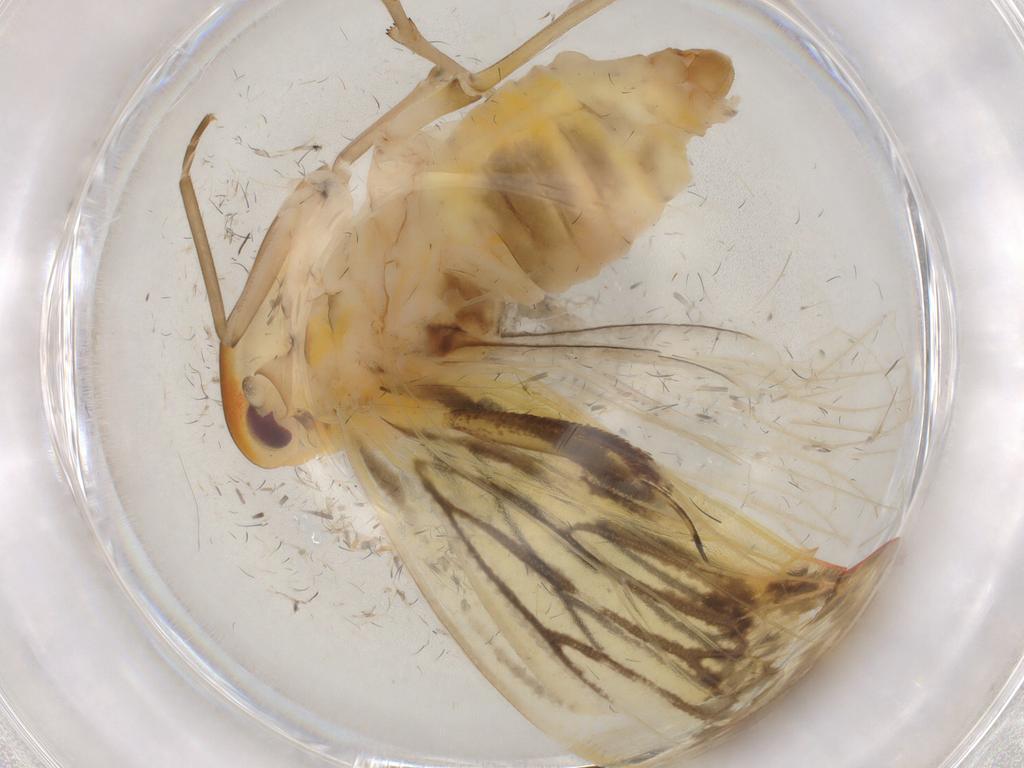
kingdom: Animalia
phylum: Arthropoda
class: Insecta
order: Hemiptera
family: Derbidae
